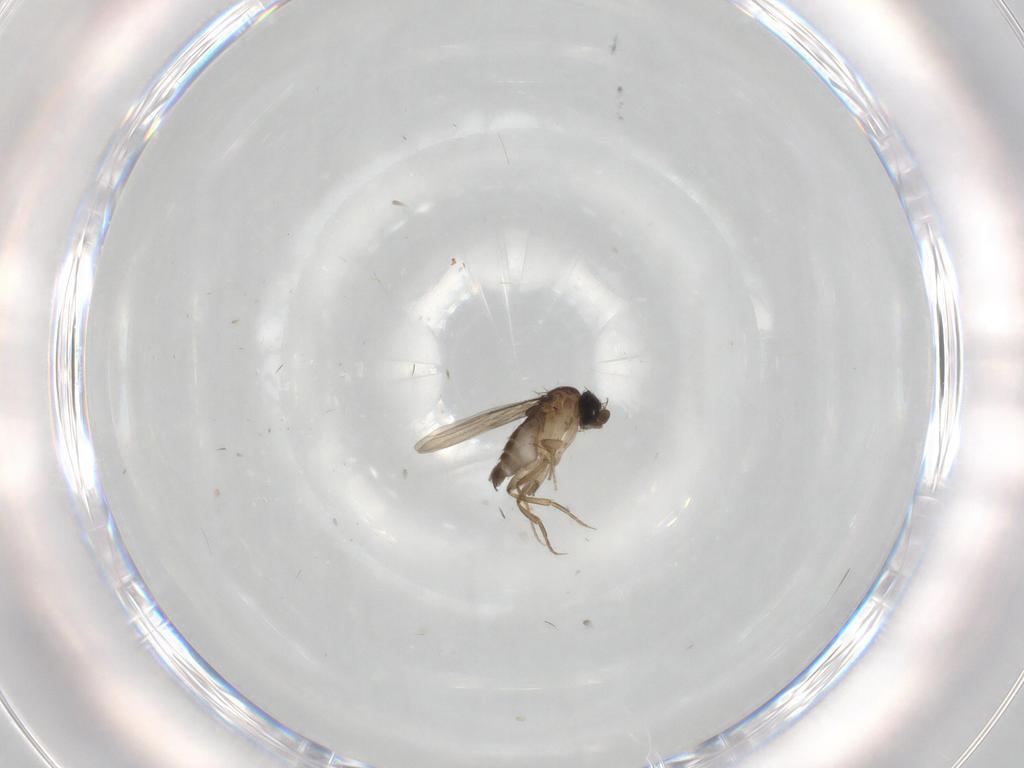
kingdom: Animalia
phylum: Arthropoda
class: Insecta
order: Diptera
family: Phoridae
